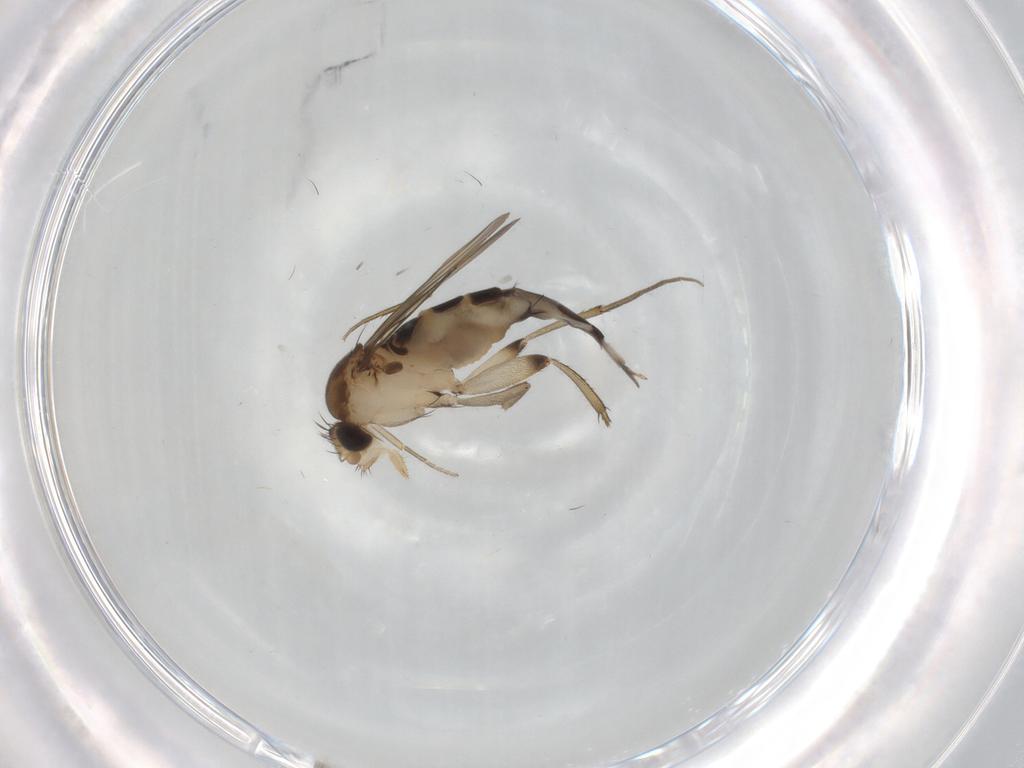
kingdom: Animalia
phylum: Arthropoda
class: Insecta
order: Diptera
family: Phoridae
